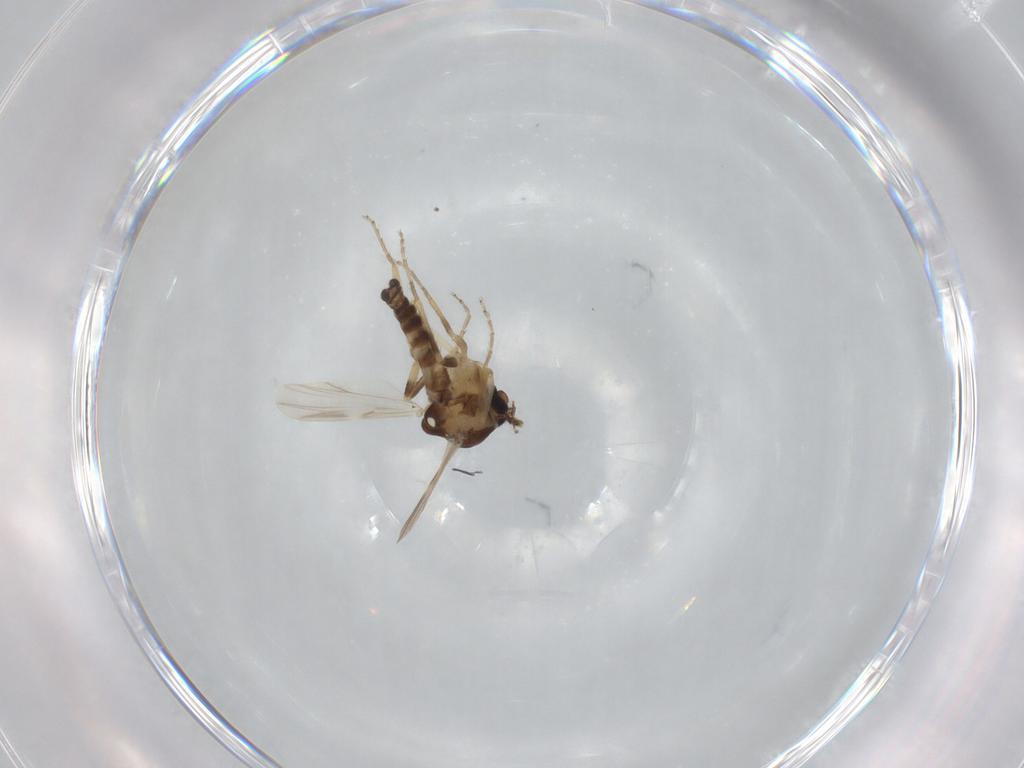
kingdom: Animalia
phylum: Arthropoda
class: Insecta
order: Diptera
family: Ceratopogonidae
